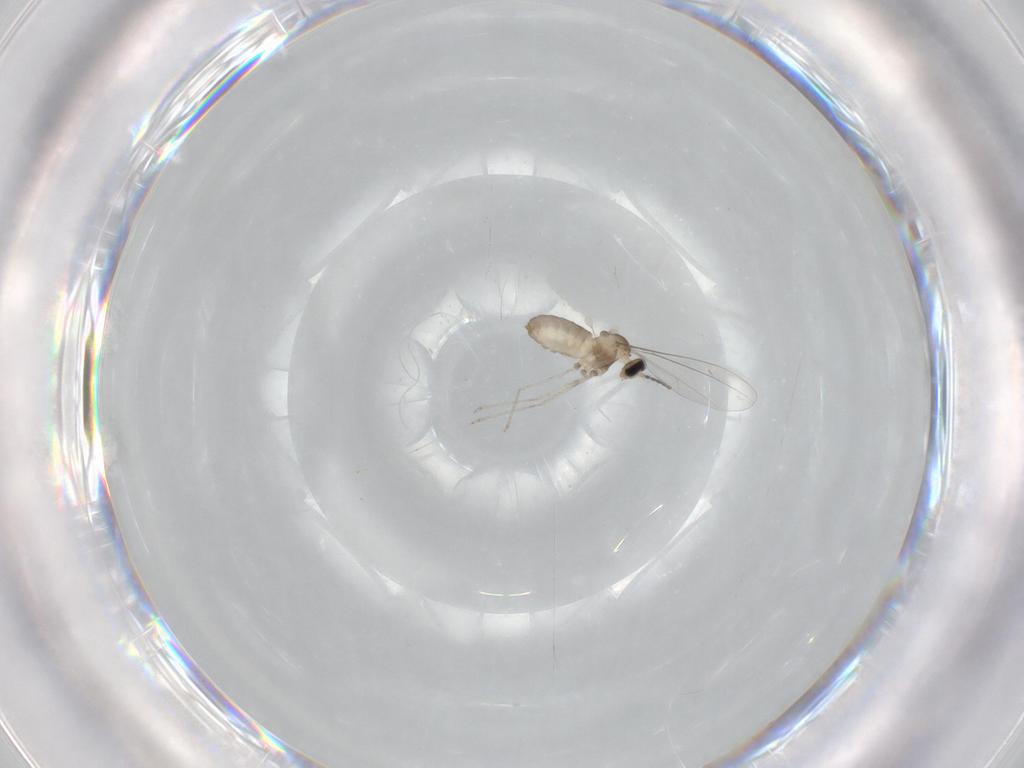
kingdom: Animalia
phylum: Arthropoda
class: Insecta
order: Diptera
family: Cecidomyiidae
